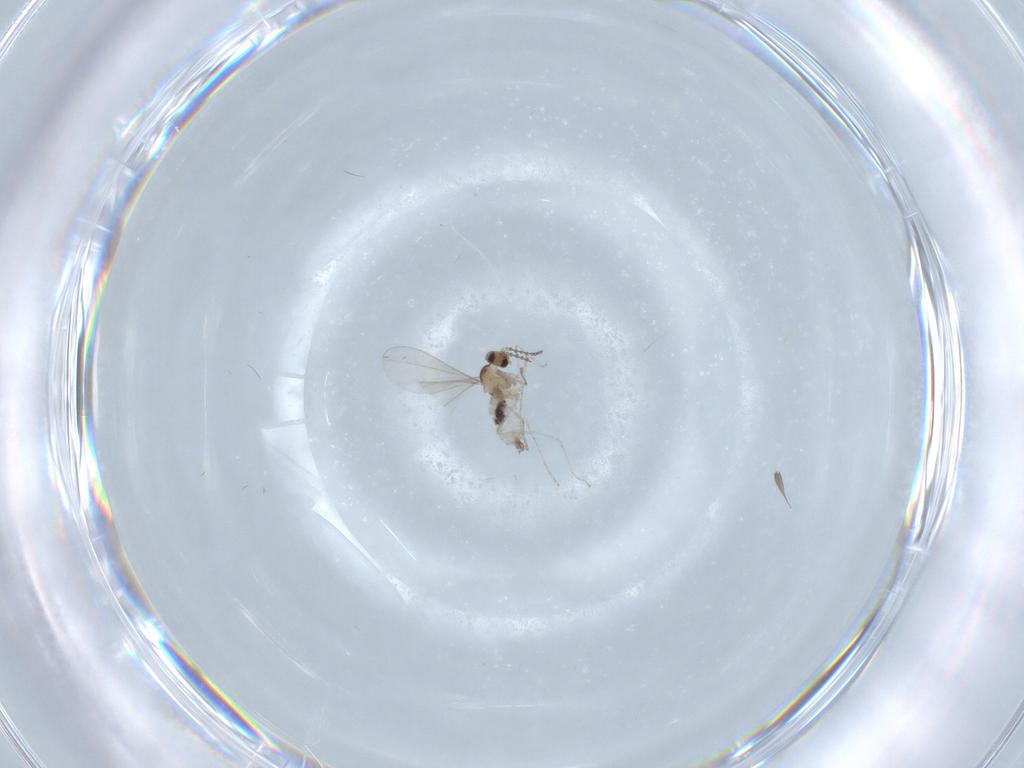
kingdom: Animalia
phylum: Arthropoda
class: Insecta
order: Diptera
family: Cecidomyiidae
